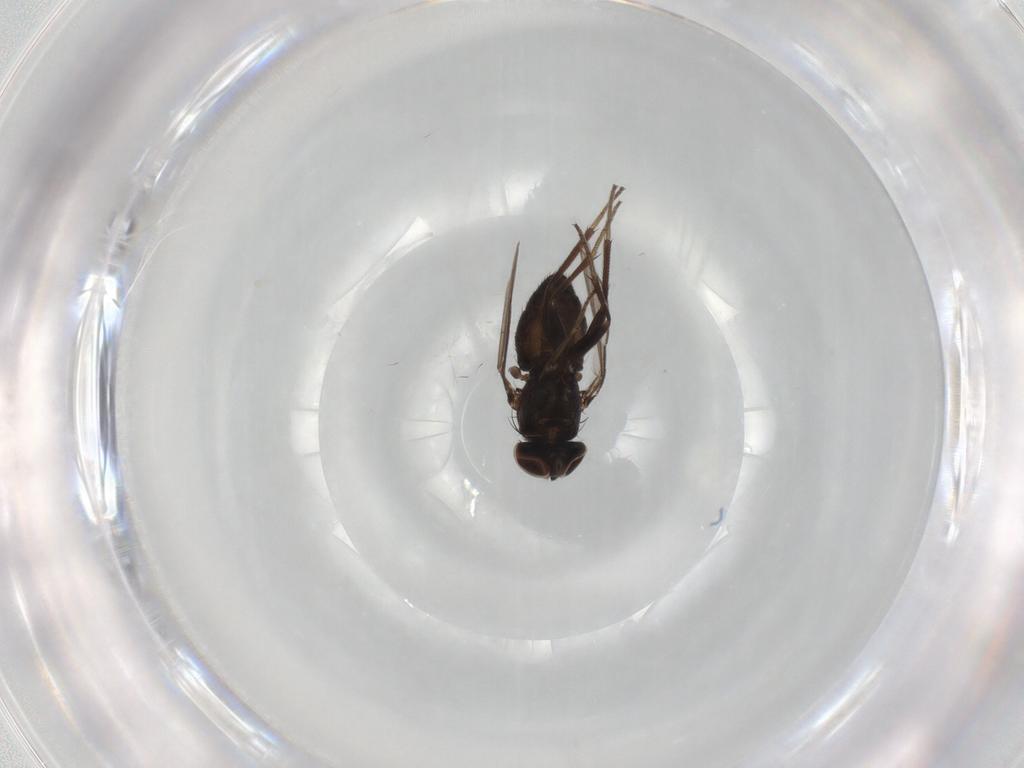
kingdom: Animalia
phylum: Arthropoda
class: Insecta
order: Diptera
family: Dolichopodidae
